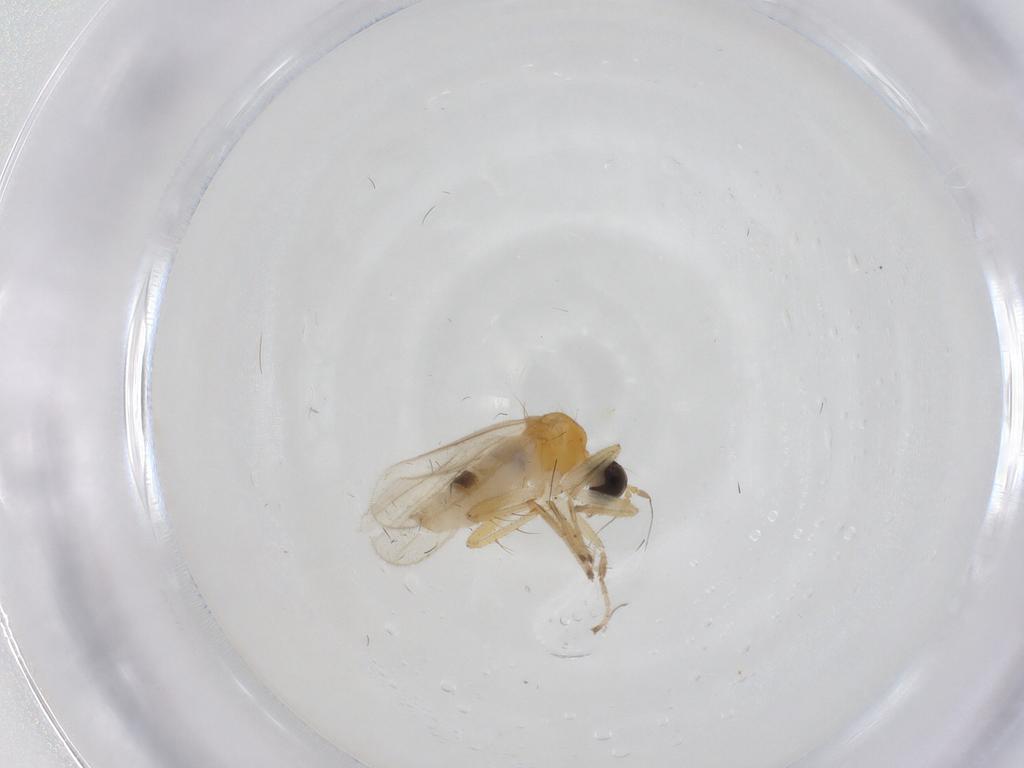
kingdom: Animalia
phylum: Arthropoda
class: Insecta
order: Diptera
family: Hybotidae
